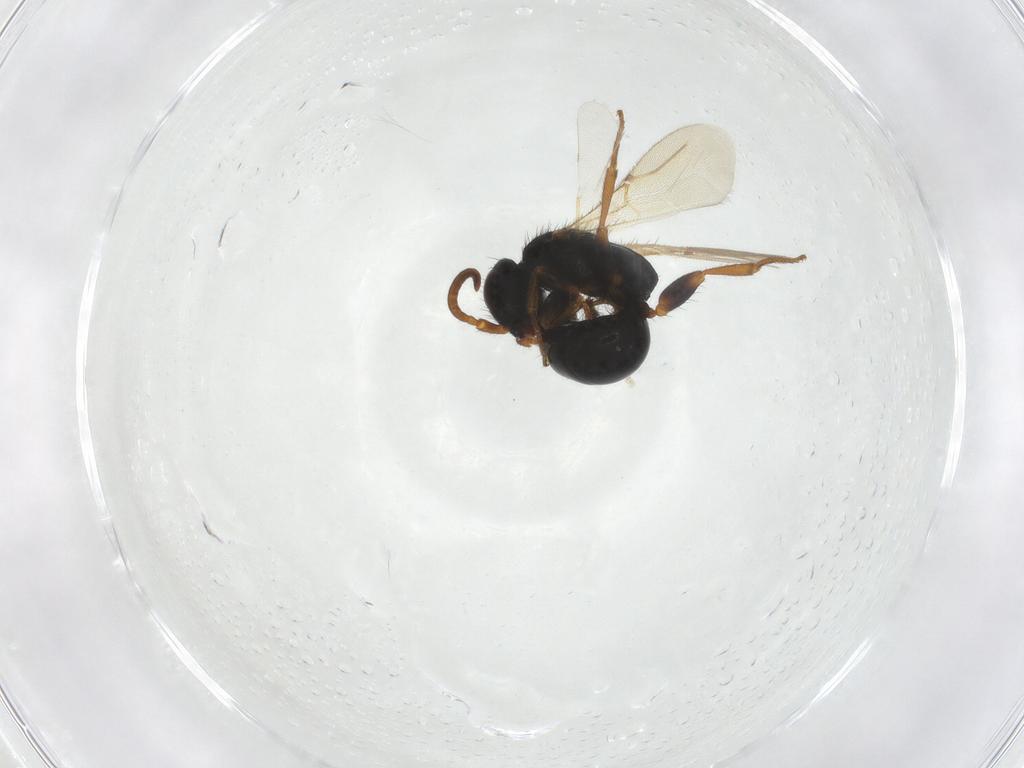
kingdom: Animalia
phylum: Arthropoda
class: Insecta
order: Hymenoptera
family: Bethylidae
